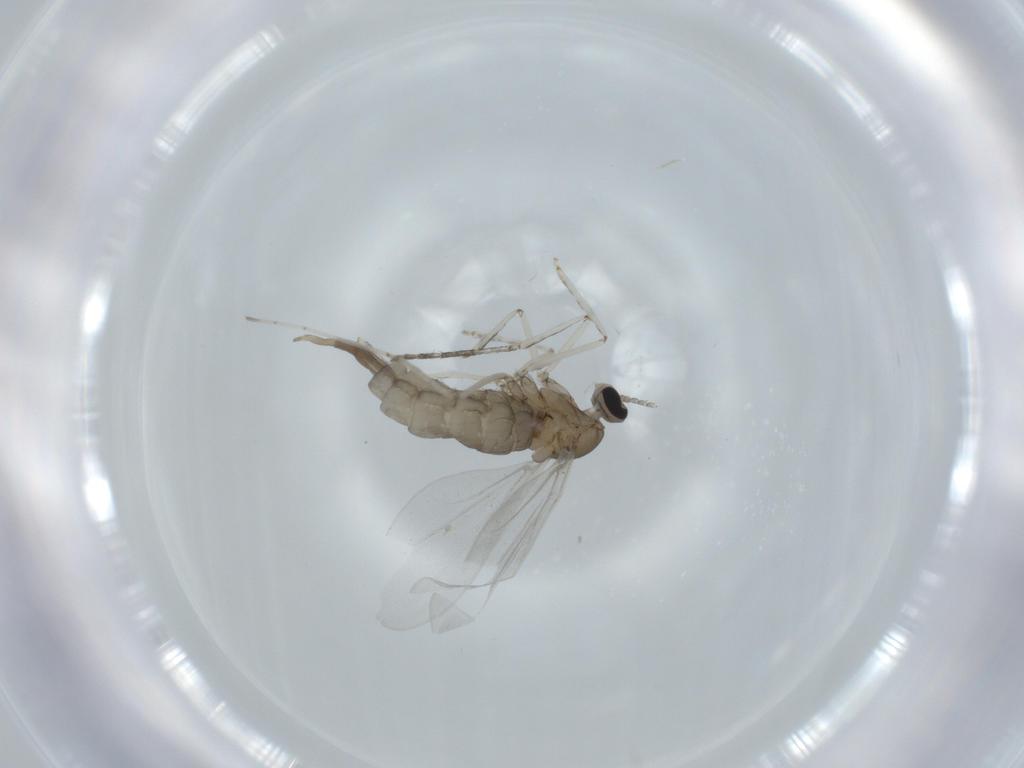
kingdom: Animalia
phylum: Arthropoda
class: Insecta
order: Diptera
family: Cecidomyiidae
